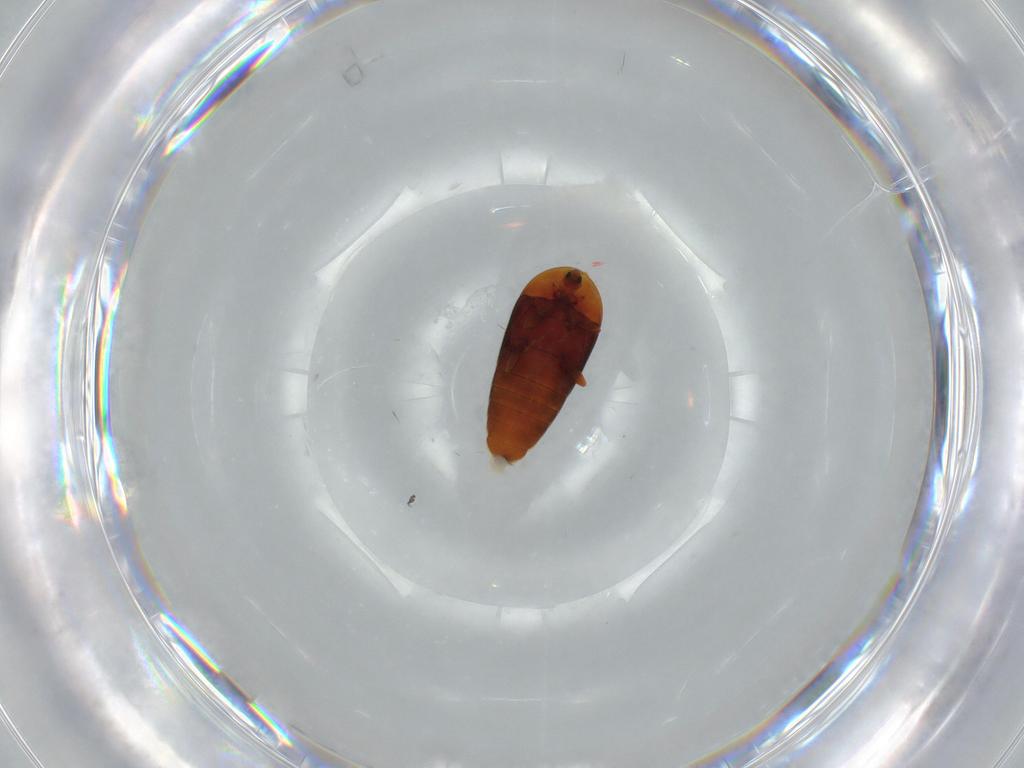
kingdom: Animalia
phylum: Arthropoda
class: Insecta
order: Coleoptera
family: Corylophidae
